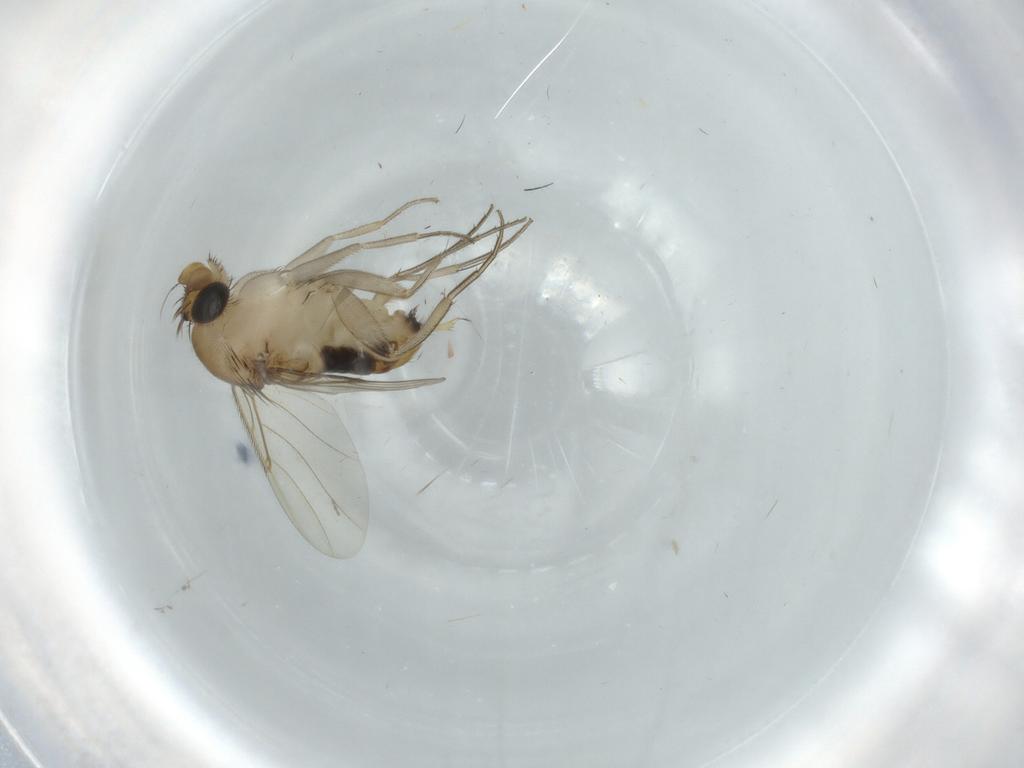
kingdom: Animalia
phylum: Arthropoda
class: Insecta
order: Diptera
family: Phoridae
